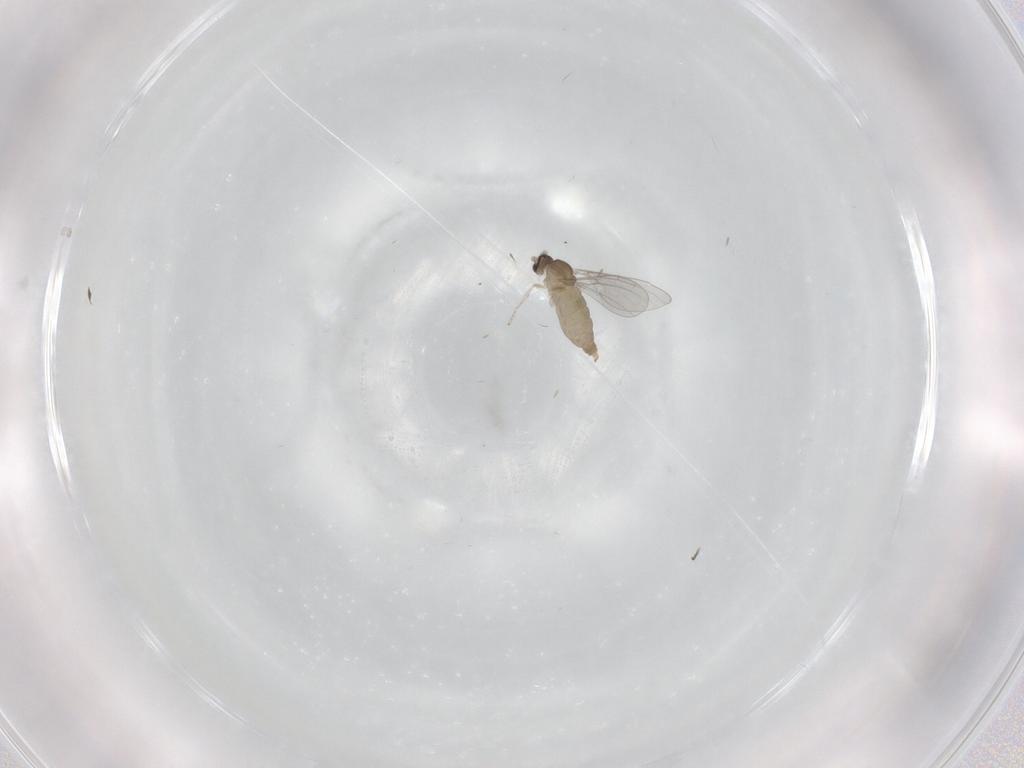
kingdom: Animalia
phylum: Arthropoda
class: Insecta
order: Diptera
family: Cecidomyiidae
